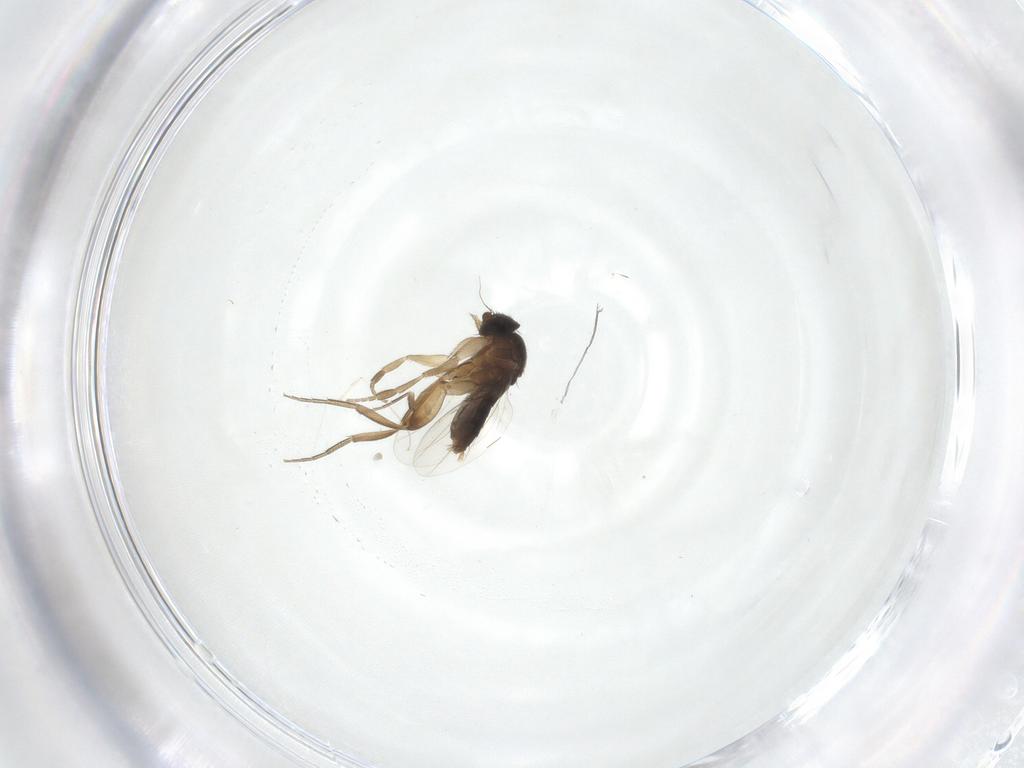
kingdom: Animalia
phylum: Arthropoda
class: Insecta
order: Diptera
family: Phoridae
